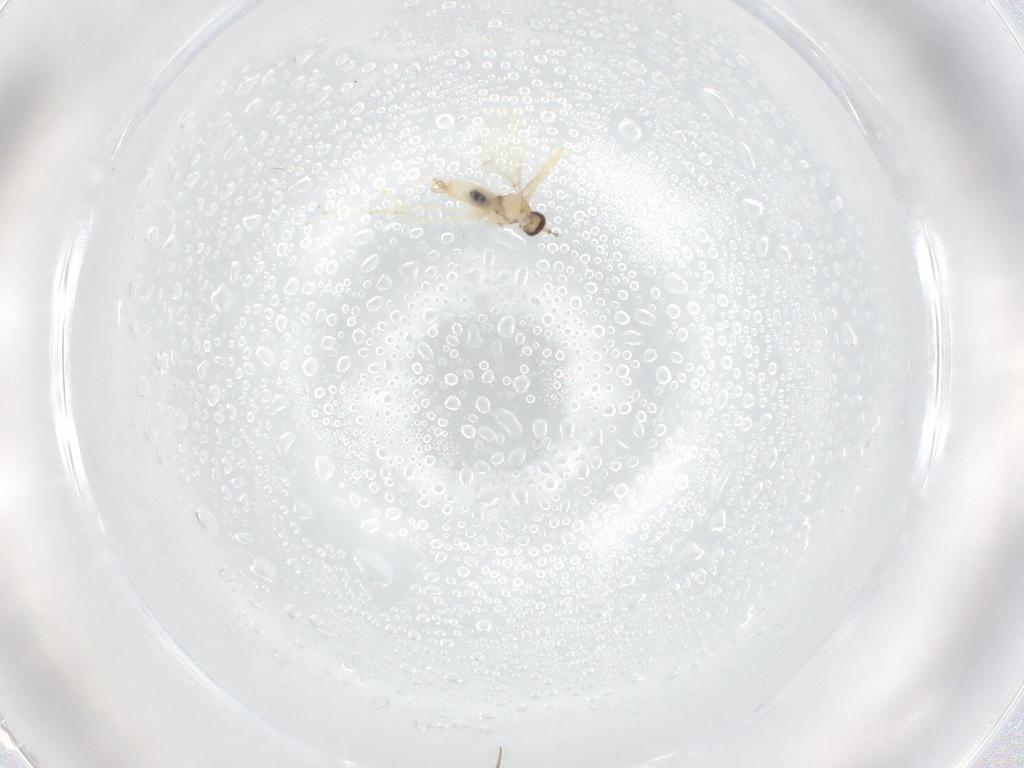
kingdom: Animalia
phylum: Arthropoda
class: Insecta
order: Diptera
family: Cecidomyiidae
